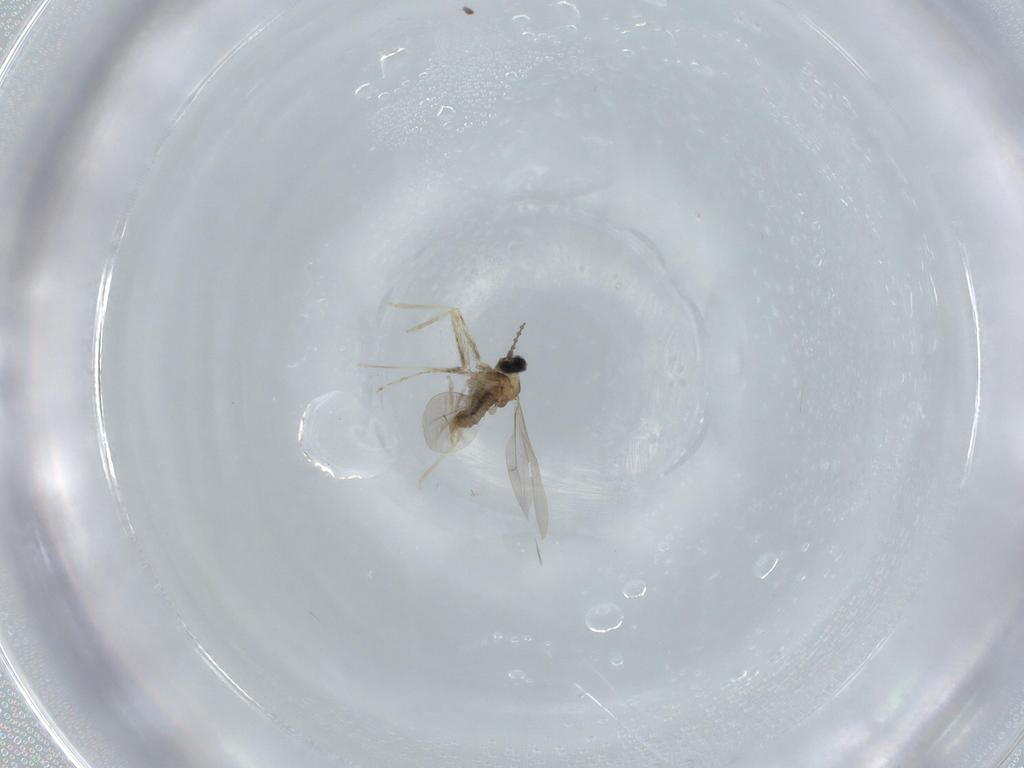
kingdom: Animalia
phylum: Arthropoda
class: Insecta
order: Diptera
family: Cecidomyiidae
